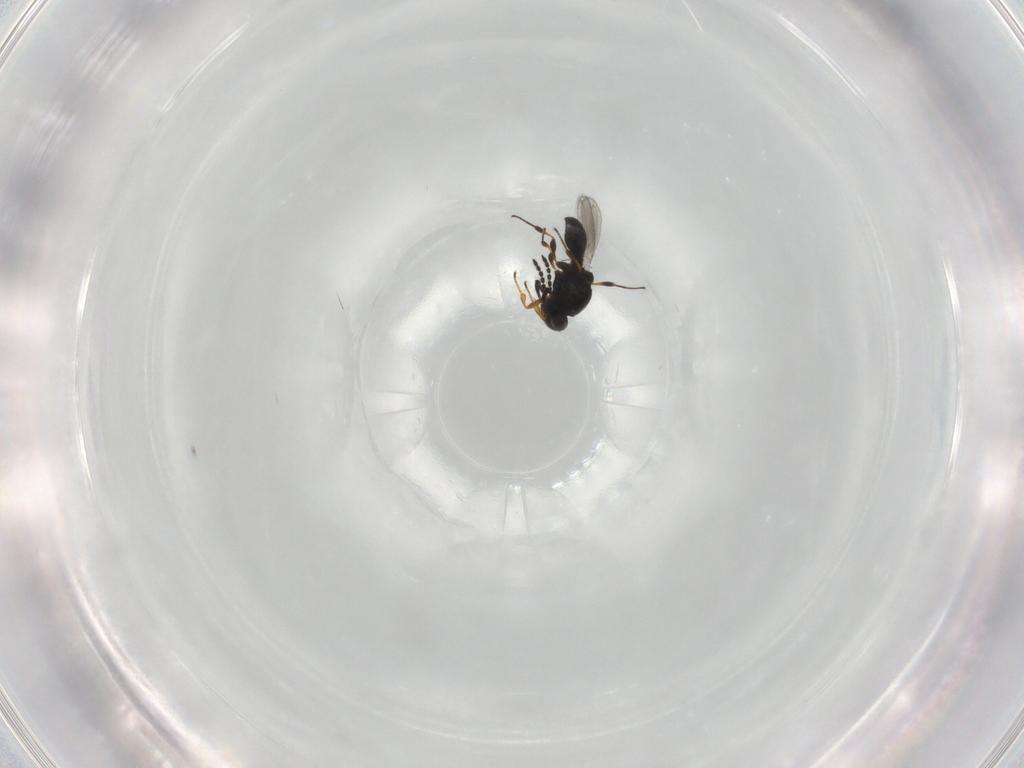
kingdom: Animalia
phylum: Arthropoda
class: Insecta
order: Hymenoptera
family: Platygastridae
